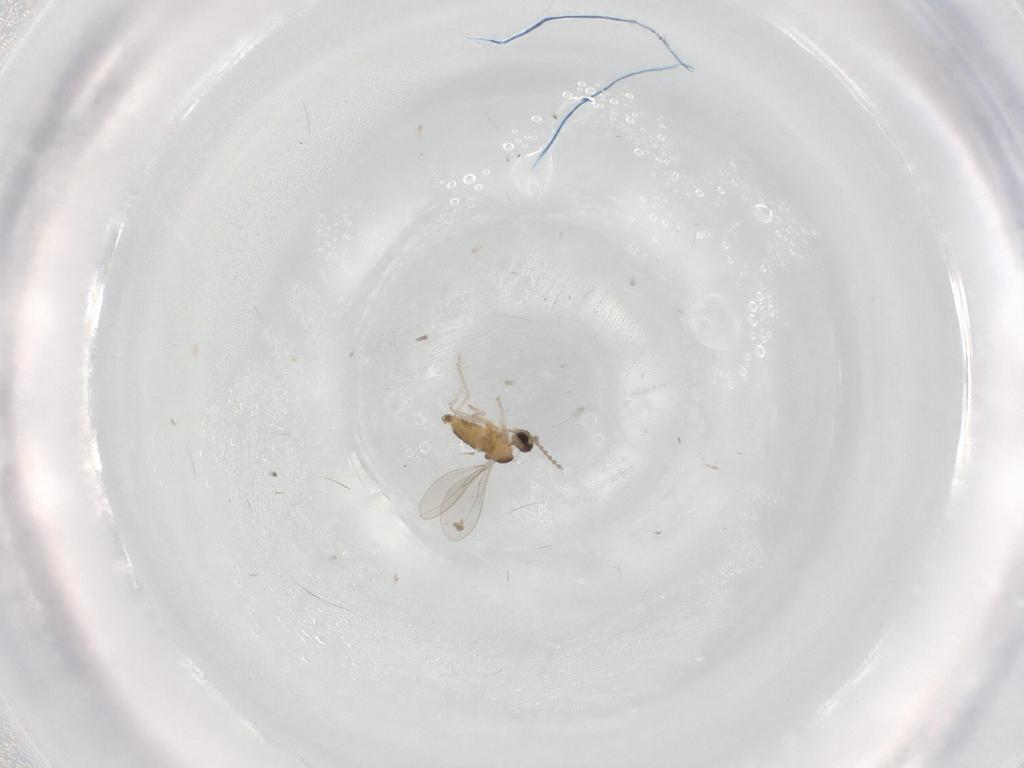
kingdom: Animalia
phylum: Arthropoda
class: Insecta
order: Diptera
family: Cecidomyiidae
